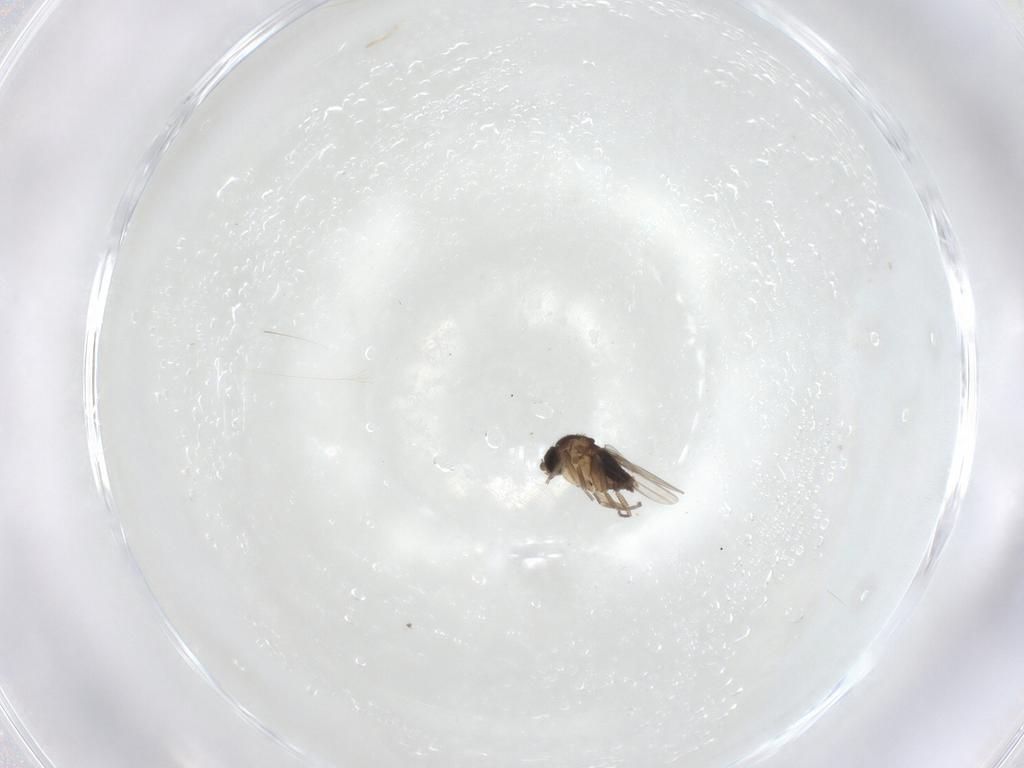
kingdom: Animalia
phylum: Arthropoda
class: Insecta
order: Diptera
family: Phoridae
